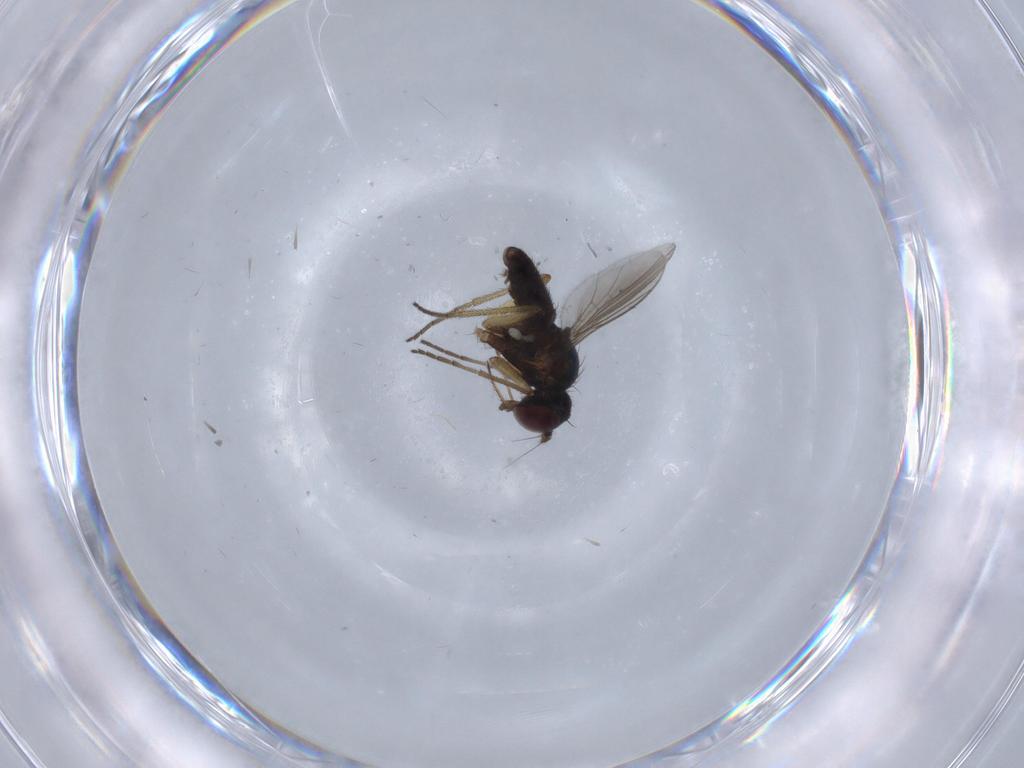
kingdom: Animalia
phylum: Arthropoda
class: Insecta
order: Diptera
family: Dolichopodidae
